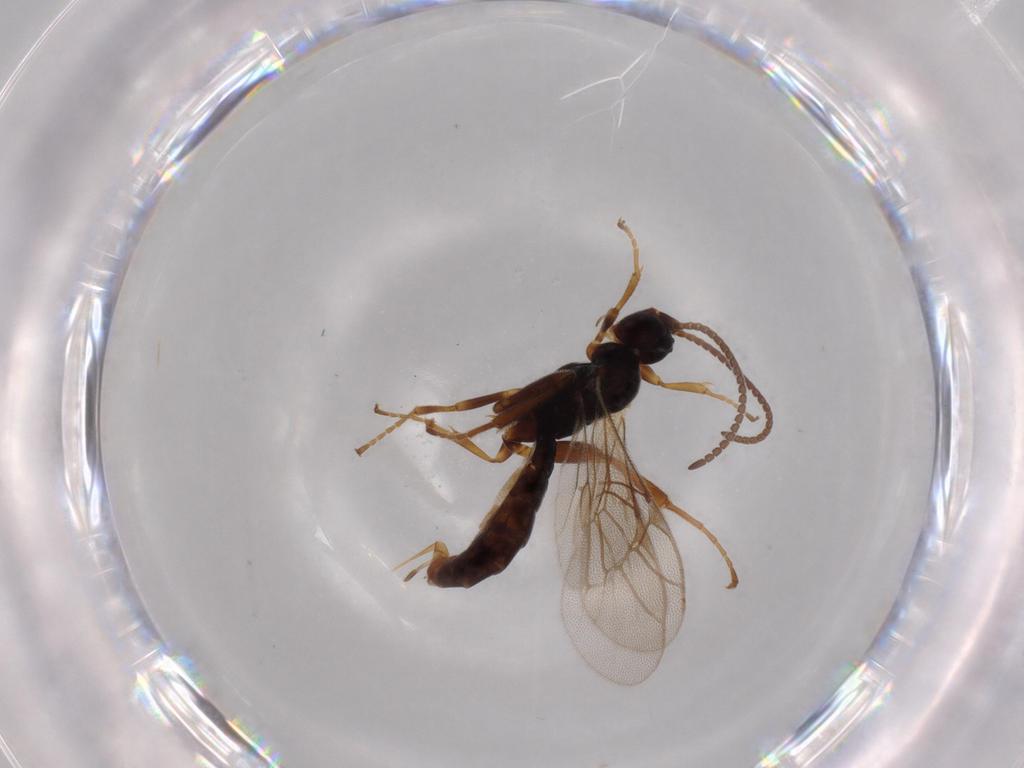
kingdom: Animalia
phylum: Arthropoda
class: Insecta
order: Hymenoptera
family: Ichneumonidae
